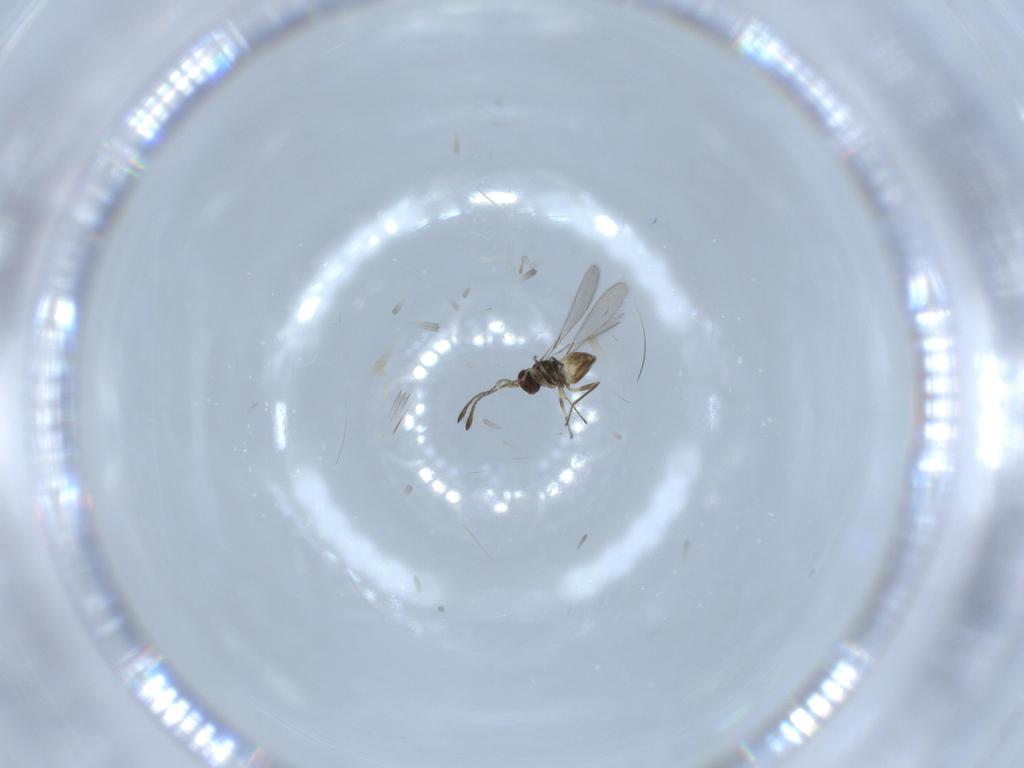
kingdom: Animalia
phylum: Arthropoda
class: Insecta
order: Hymenoptera
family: Mymaridae
